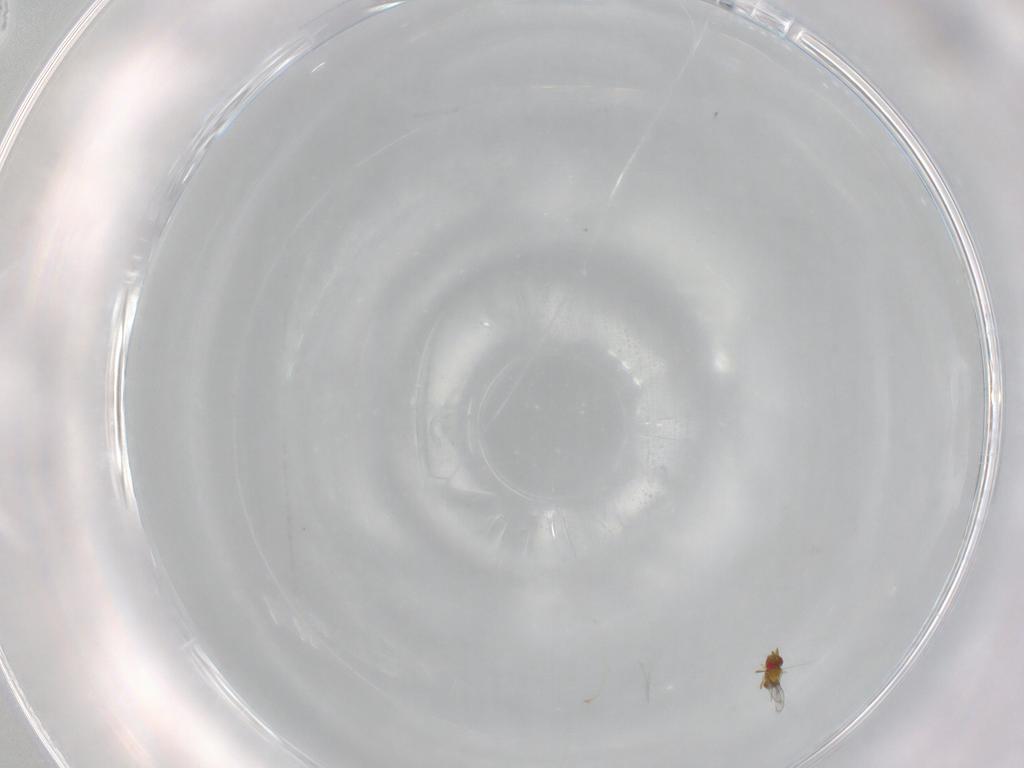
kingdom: Animalia
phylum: Arthropoda
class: Insecta
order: Hymenoptera
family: Trichogrammatidae
